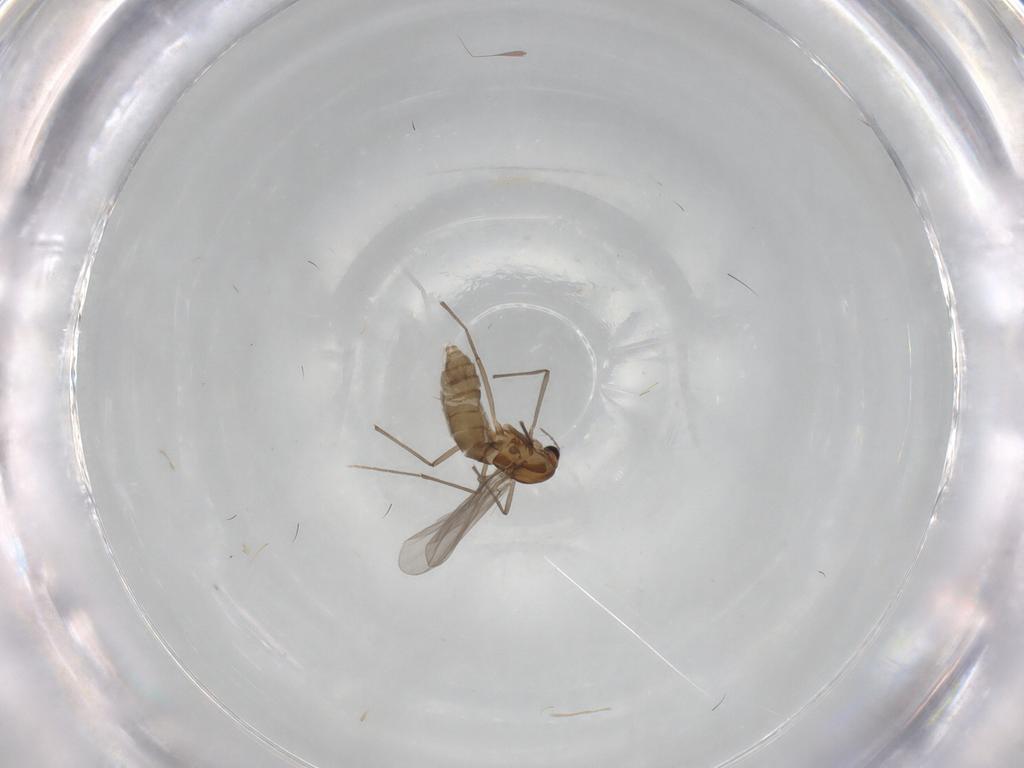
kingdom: Animalia
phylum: Arthropoda
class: Insecta
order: Diptera
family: Chironomidae
